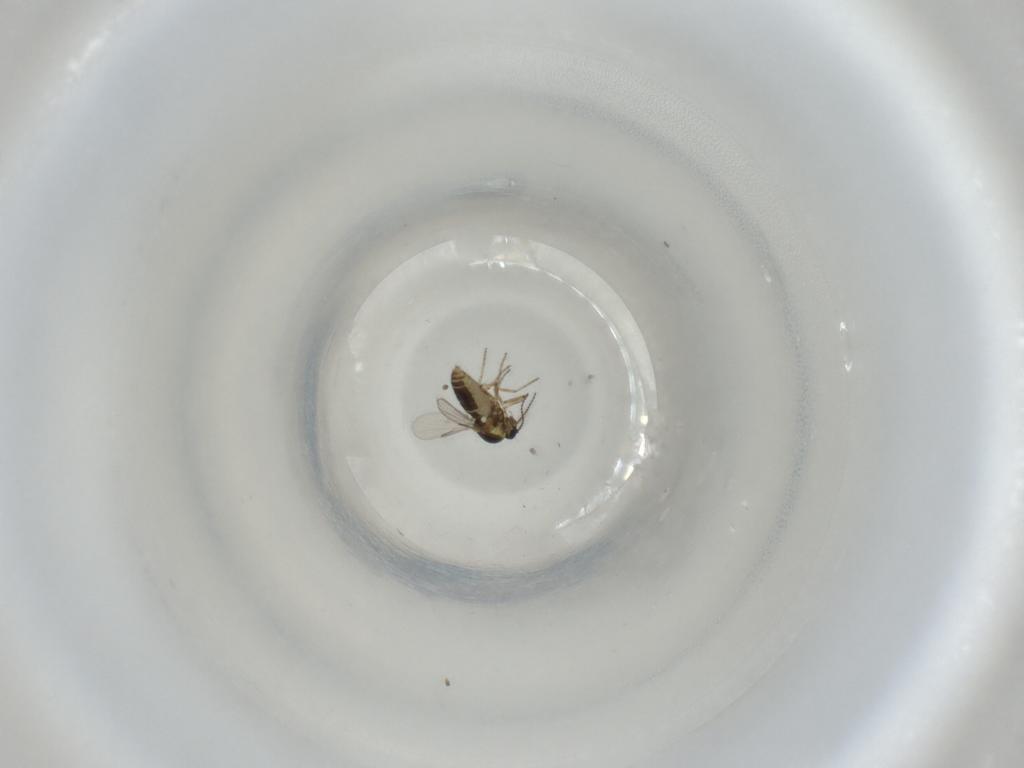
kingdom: Animalia
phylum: Arthropoda
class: Insecta
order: Diptera
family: Ceratopogonidae
